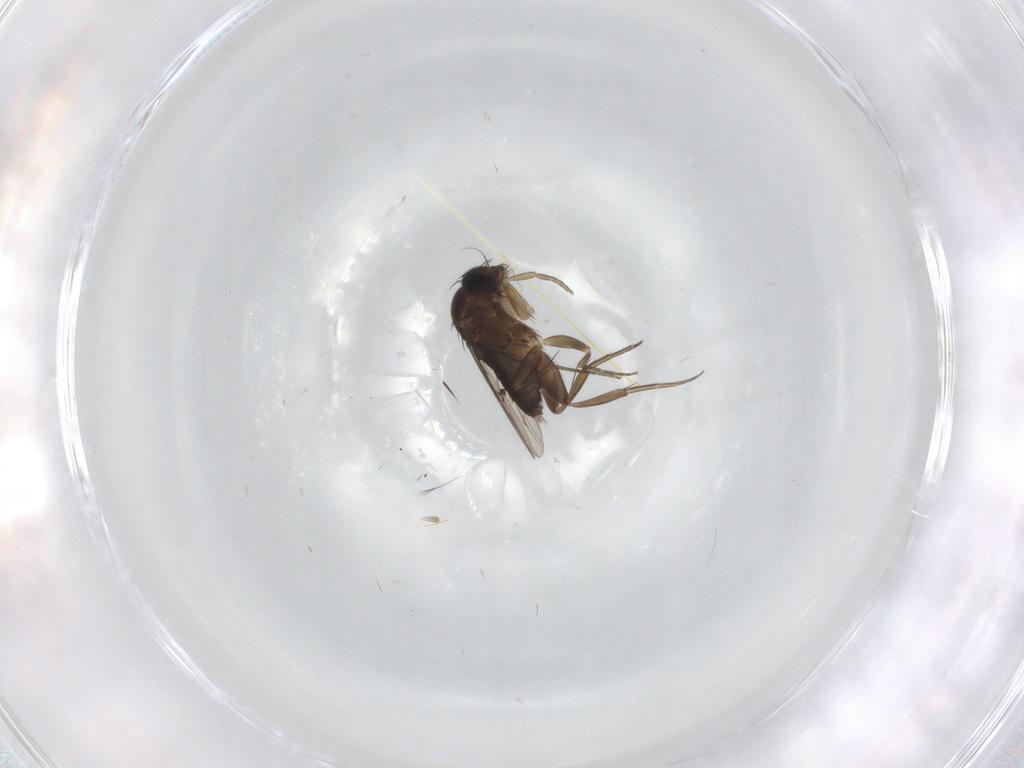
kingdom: Animalia
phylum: Arthropoda
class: Insecta
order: Diptera
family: Phoridae
